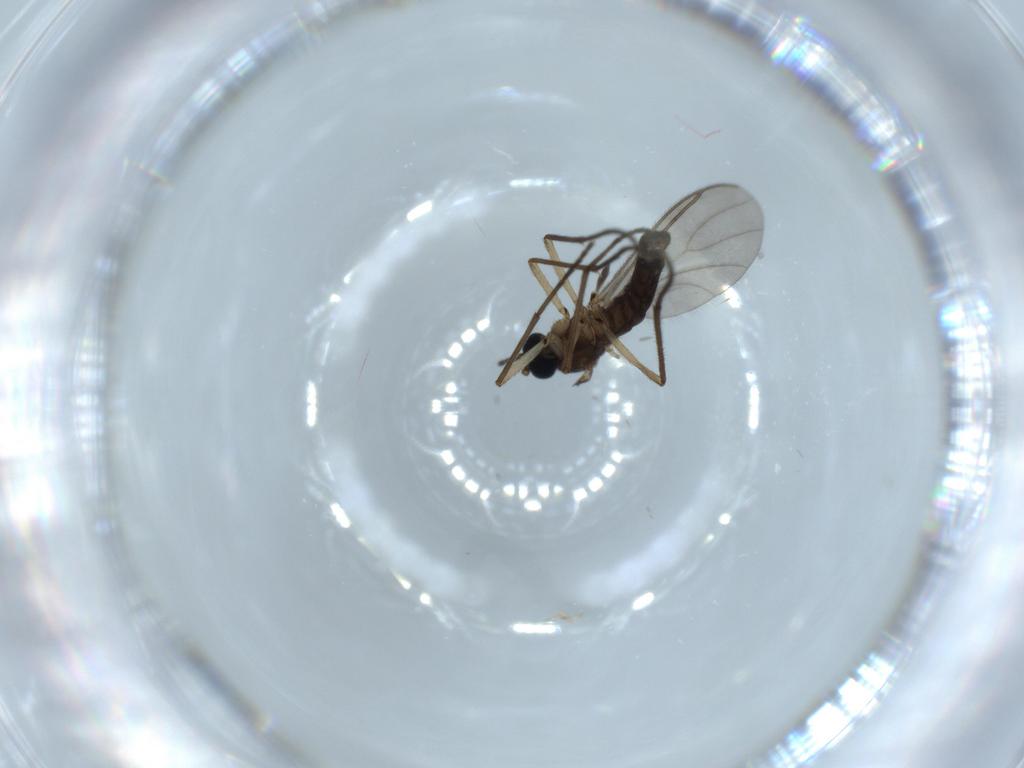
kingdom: Animalia
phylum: Arthropoda
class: Insecta
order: Diptera
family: Sciaridae
